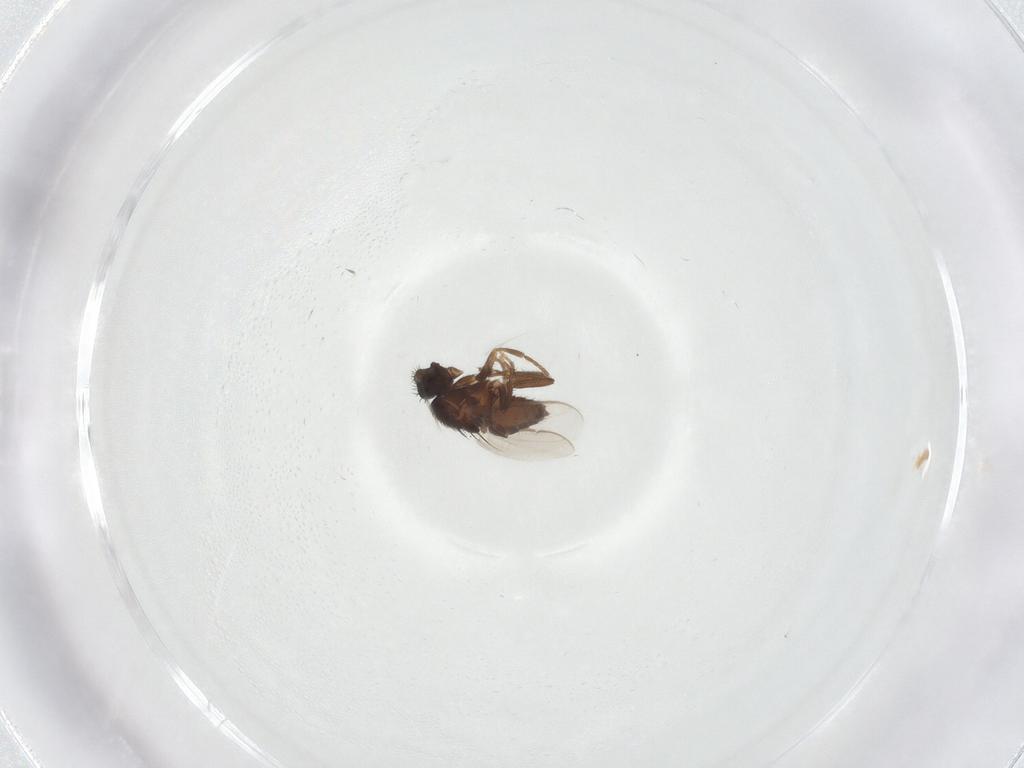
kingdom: Animalia
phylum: Arthropoda
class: Insecta
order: Diptera
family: Sphaeroceridae
